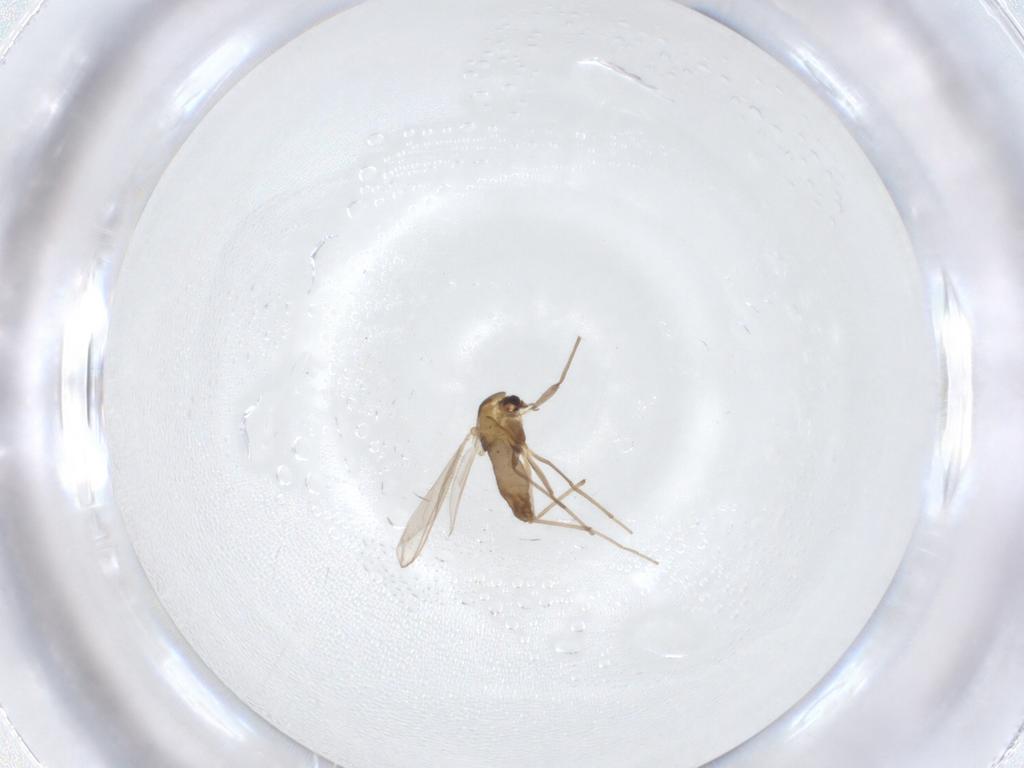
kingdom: Animalia
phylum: Arthropoda
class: Insecta
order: Diptera
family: Chironomidae
